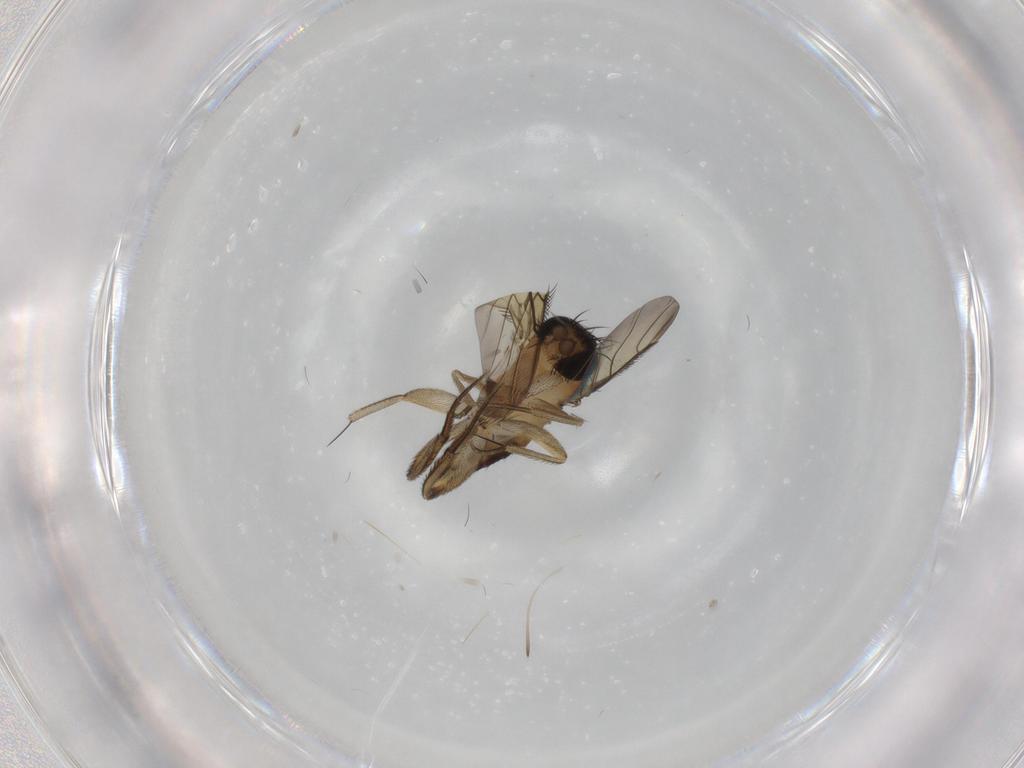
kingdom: Animalia
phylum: Arthropoda
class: Insecta
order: Diptera
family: Phoridae
